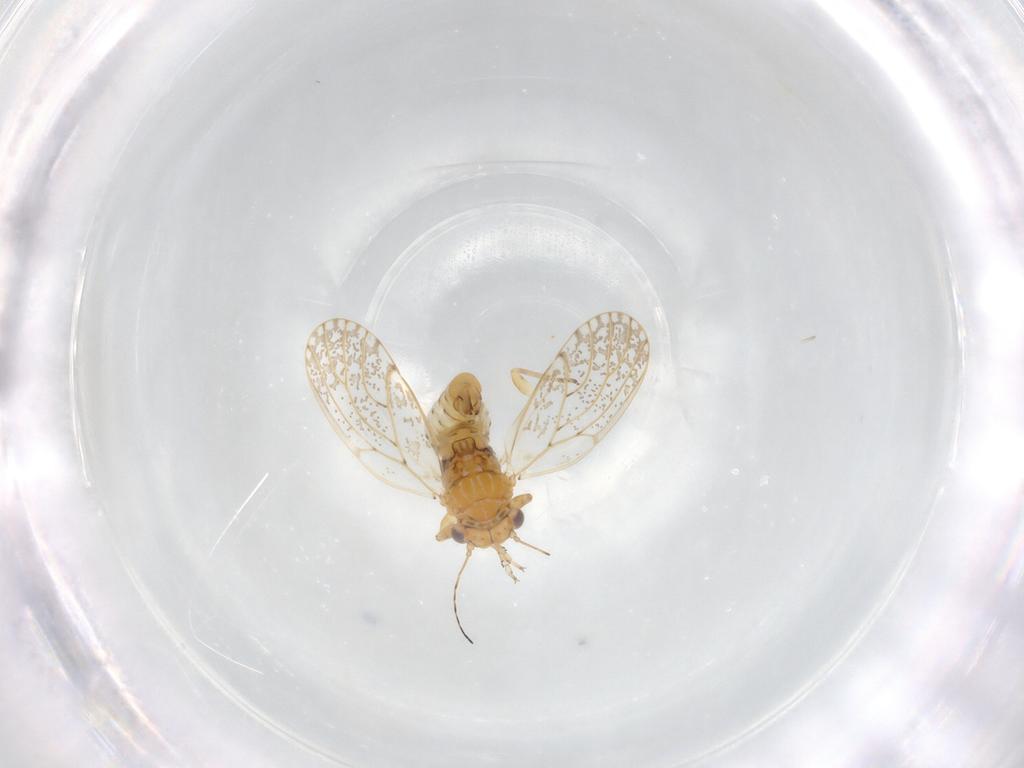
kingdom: Animalia
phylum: Arthropoda
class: Insecta
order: Hemiptera
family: Psyllidae
